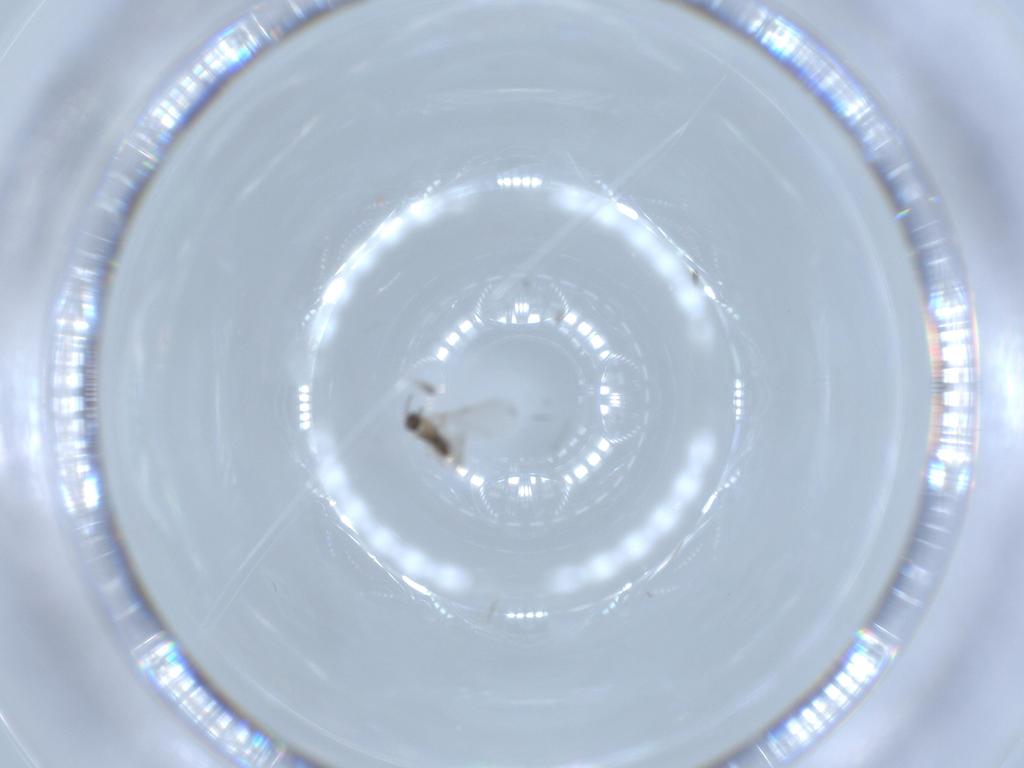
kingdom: Animalia
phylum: Arthropoda
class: Insecta
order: Diptera
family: Cecidomyiidae
